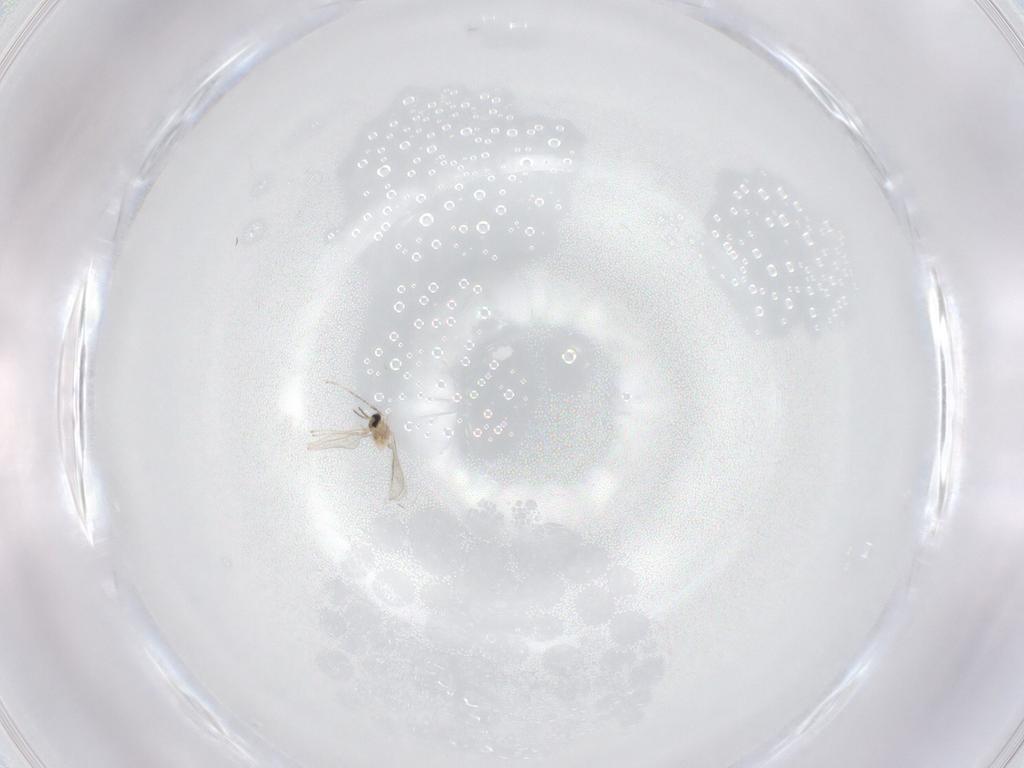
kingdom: Animalia
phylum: Arthropoda
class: Insecta
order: Diptera
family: Cecidomyiidae
